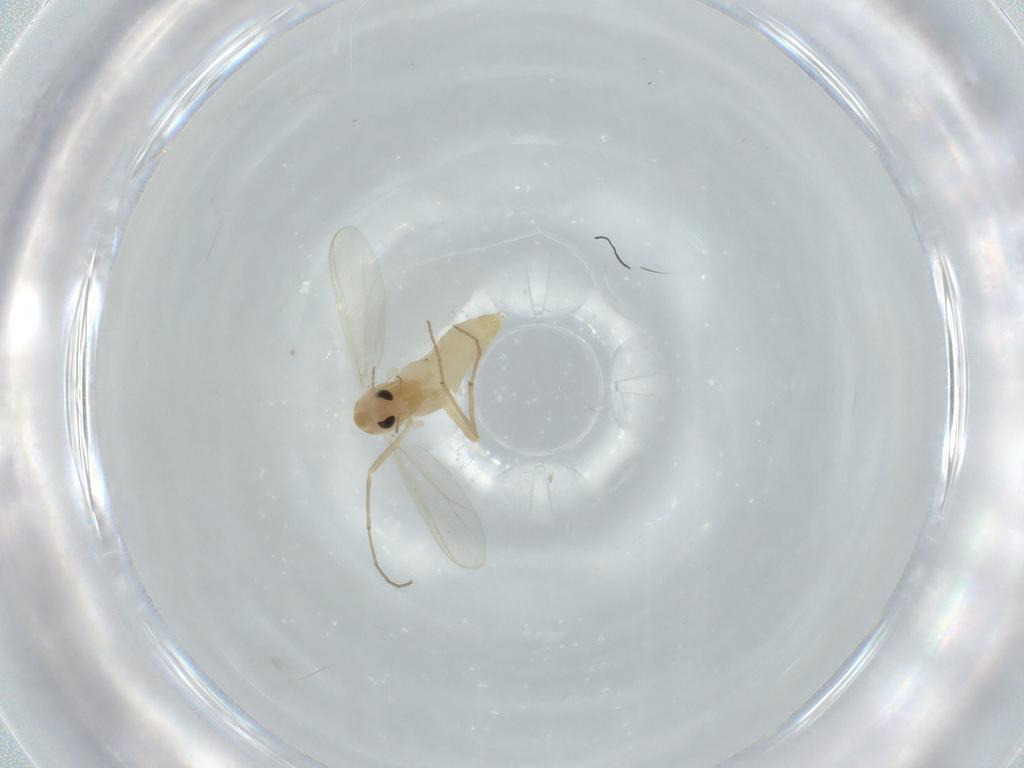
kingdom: Animalia
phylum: Arthropoda
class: Insecta
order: Diptera
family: Chironomidae
